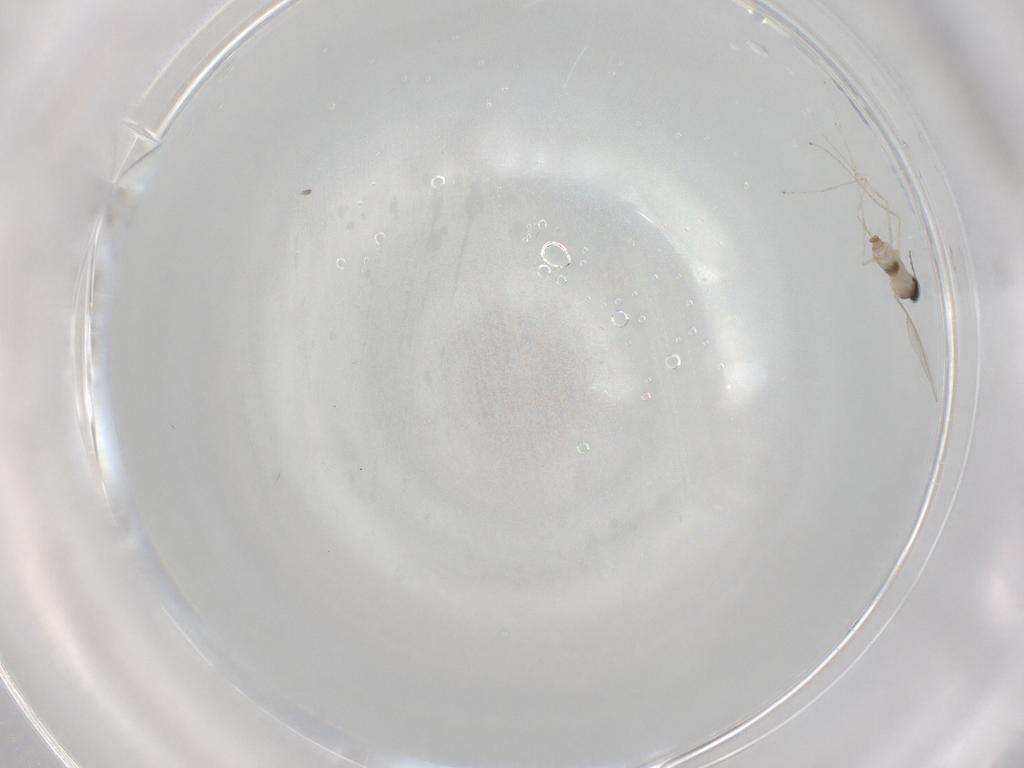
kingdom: Animalia
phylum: Arthropoda
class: Insecta
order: Diptera
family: Cecidomyiidae
